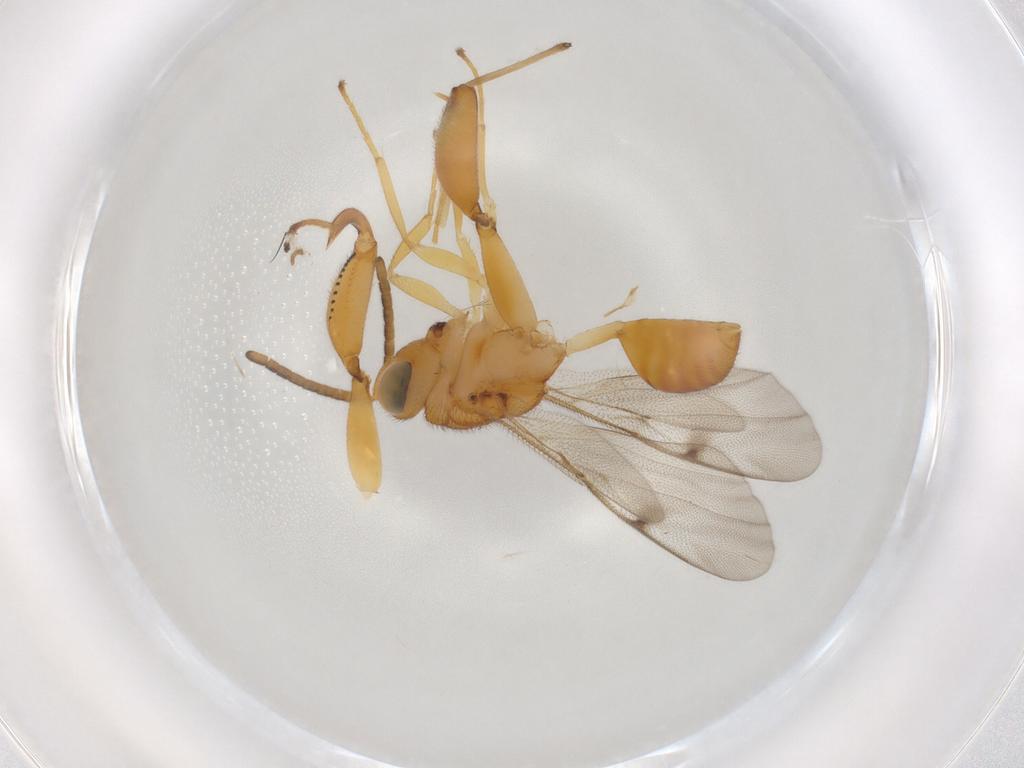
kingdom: Animalia
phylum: Arthropoda
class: Insecta
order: Hymenoptera
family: Chalcididae
